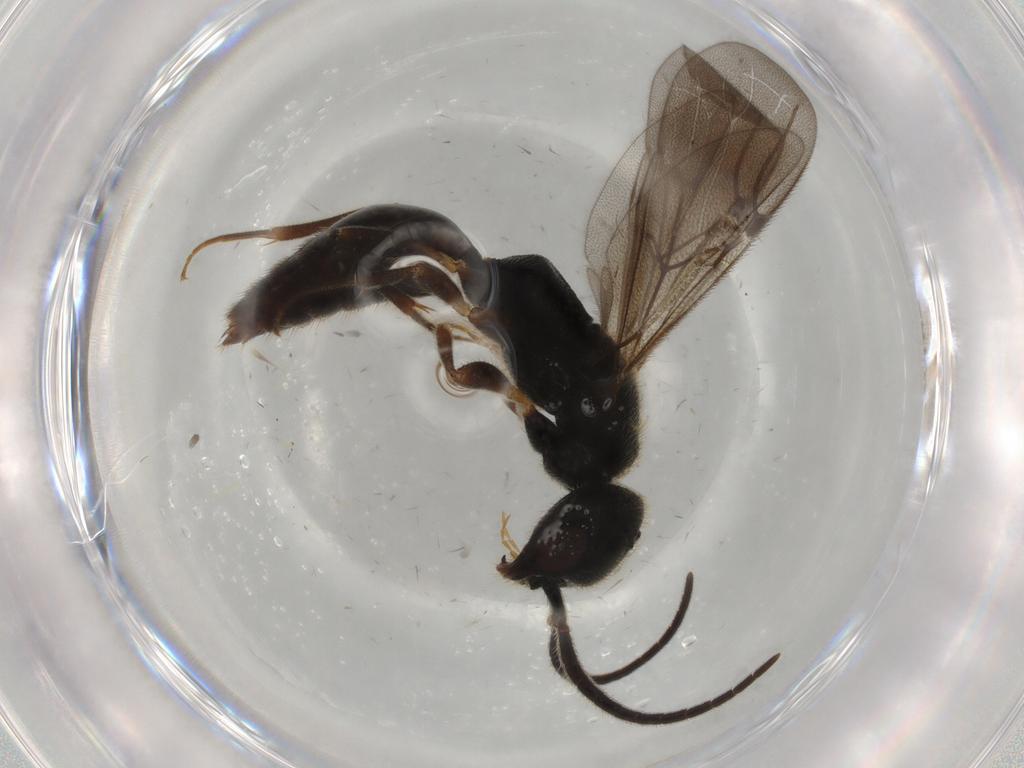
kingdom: Animalia
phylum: Arthropoda
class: Insecta
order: Hymenoptera
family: Bethylidae
